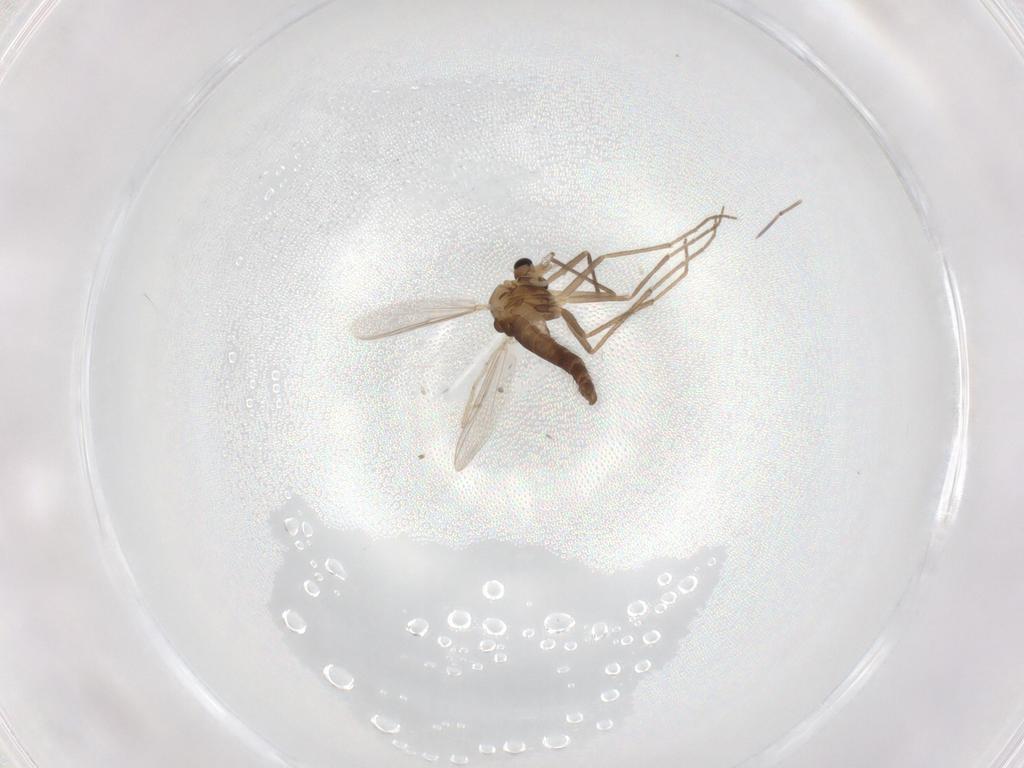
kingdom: Animalia
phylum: Arthropoda
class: Insecta
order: Diptera
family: Chironomidae
